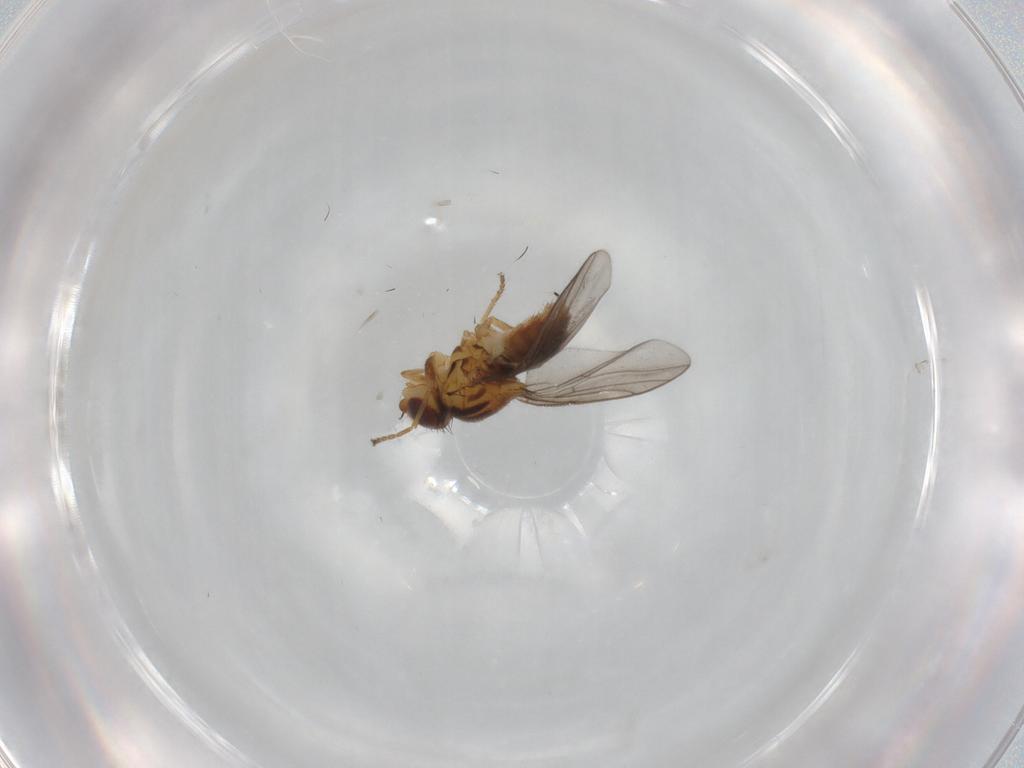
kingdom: Animalia
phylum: Arthropoda
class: Insecta
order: Diptera
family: Chloropidae
